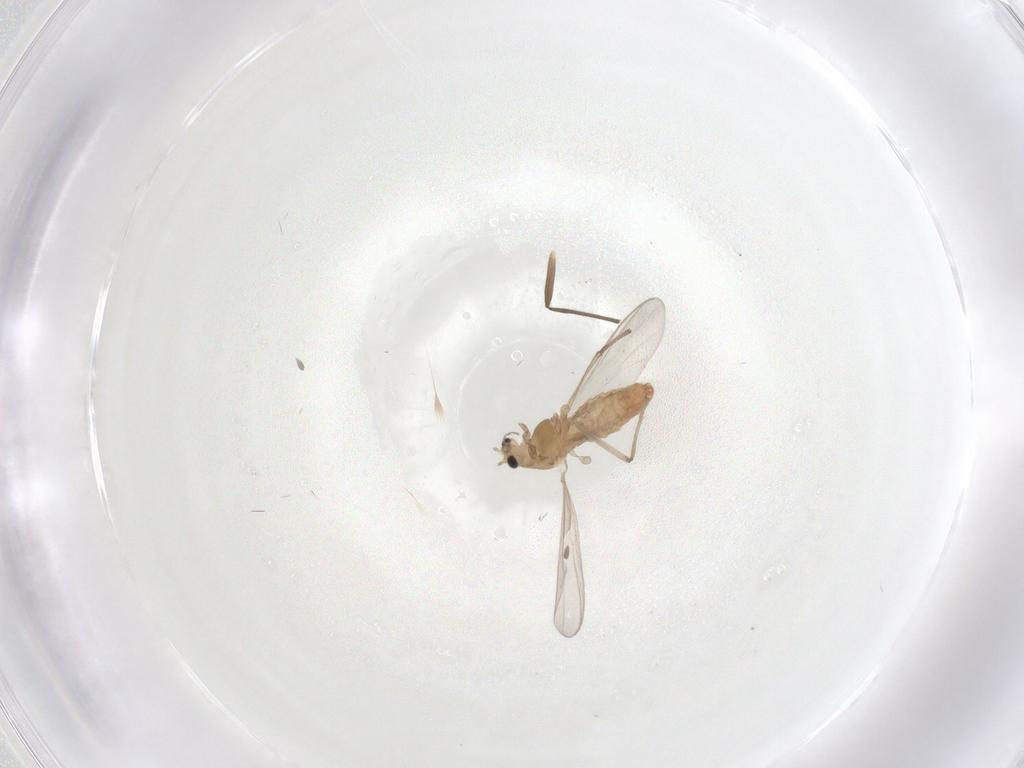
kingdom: Animalia
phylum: Arthropoda
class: Insecta
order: Diptera
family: Chironomidae
